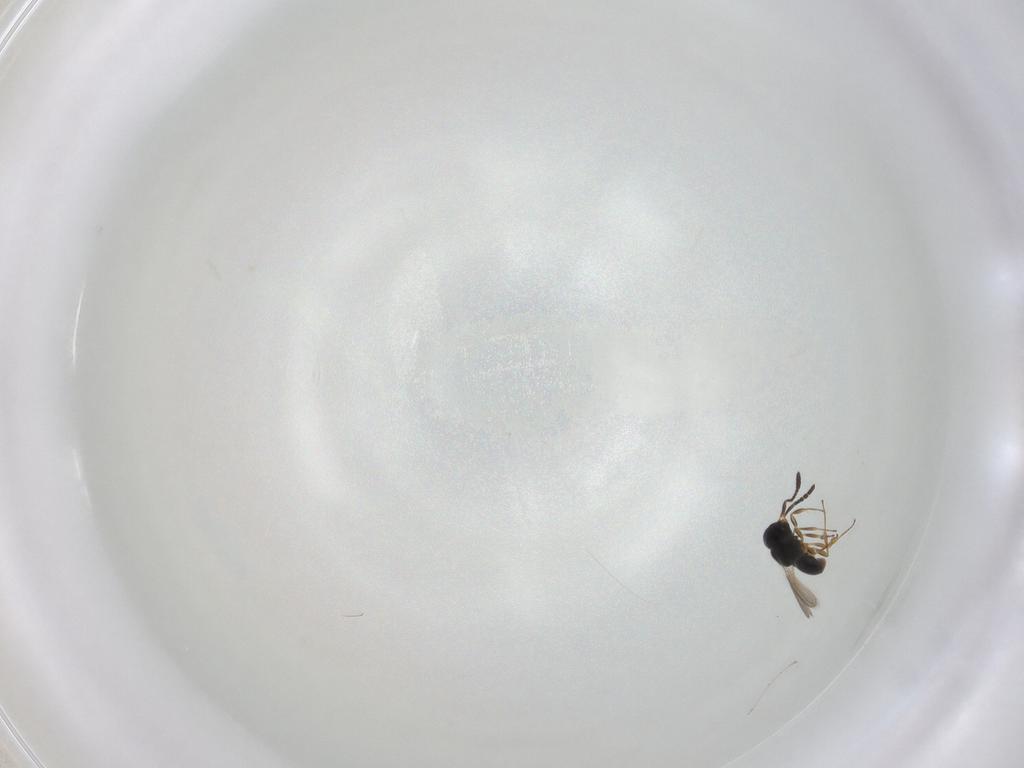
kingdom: Animalia
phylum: Arthropoda
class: Insecta
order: Hymenoptera
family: Scelionidae
